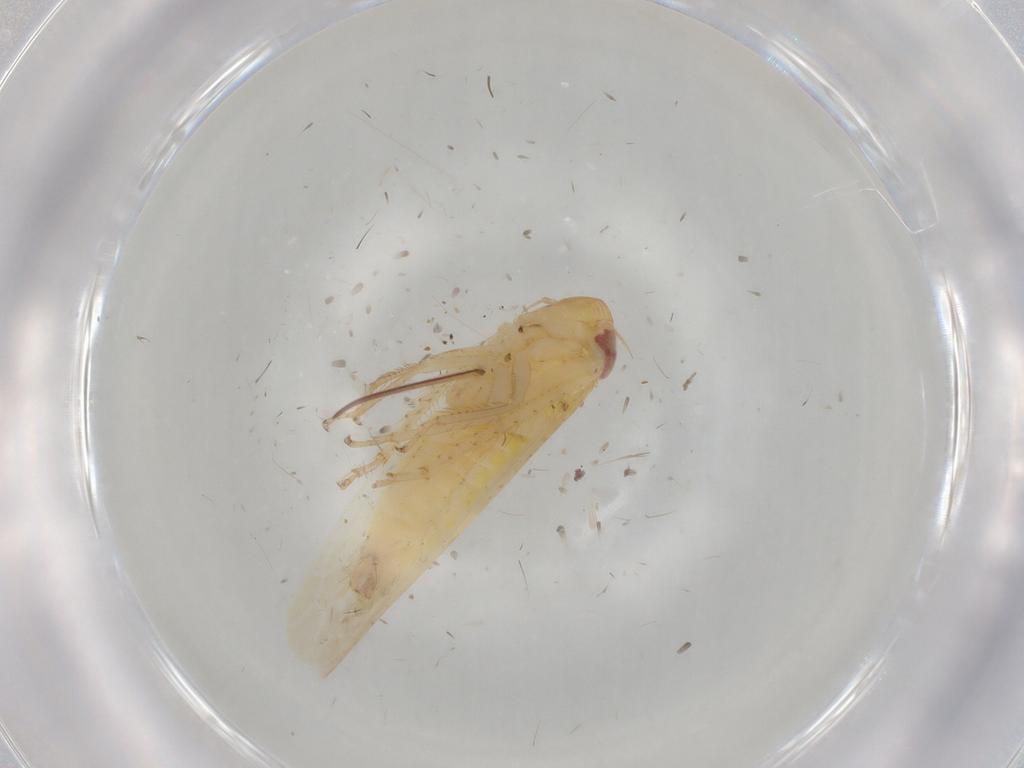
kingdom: Animalia
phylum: Arthropoda
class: Insecta
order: Hemiptera
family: Cicadellidae
